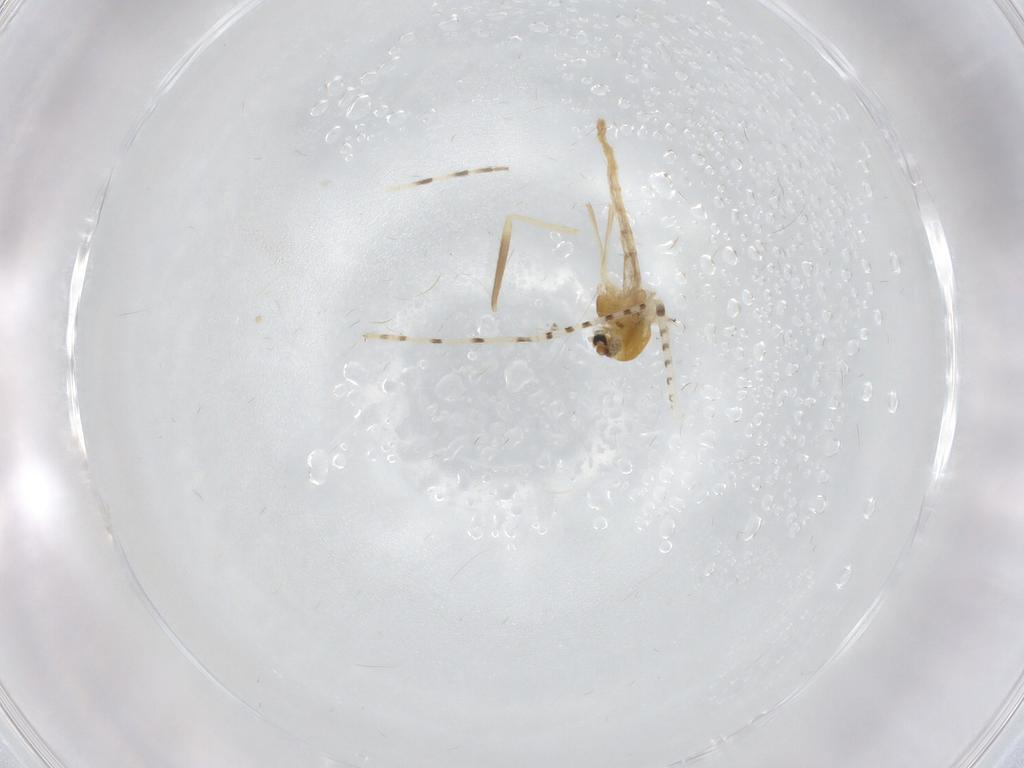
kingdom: Animalia
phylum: Arthropoda
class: Insecta
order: Diptera
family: Chaoboridae
